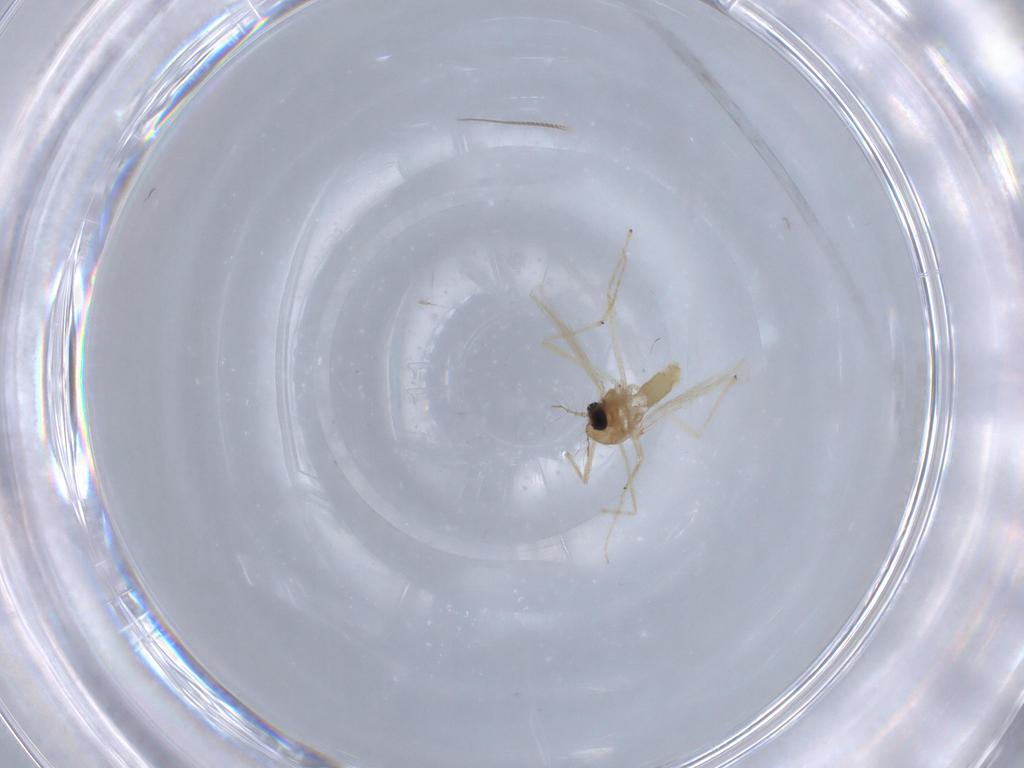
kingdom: Animalia
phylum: Arthropoda
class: Insecta
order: Diptera
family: Chironomidae
